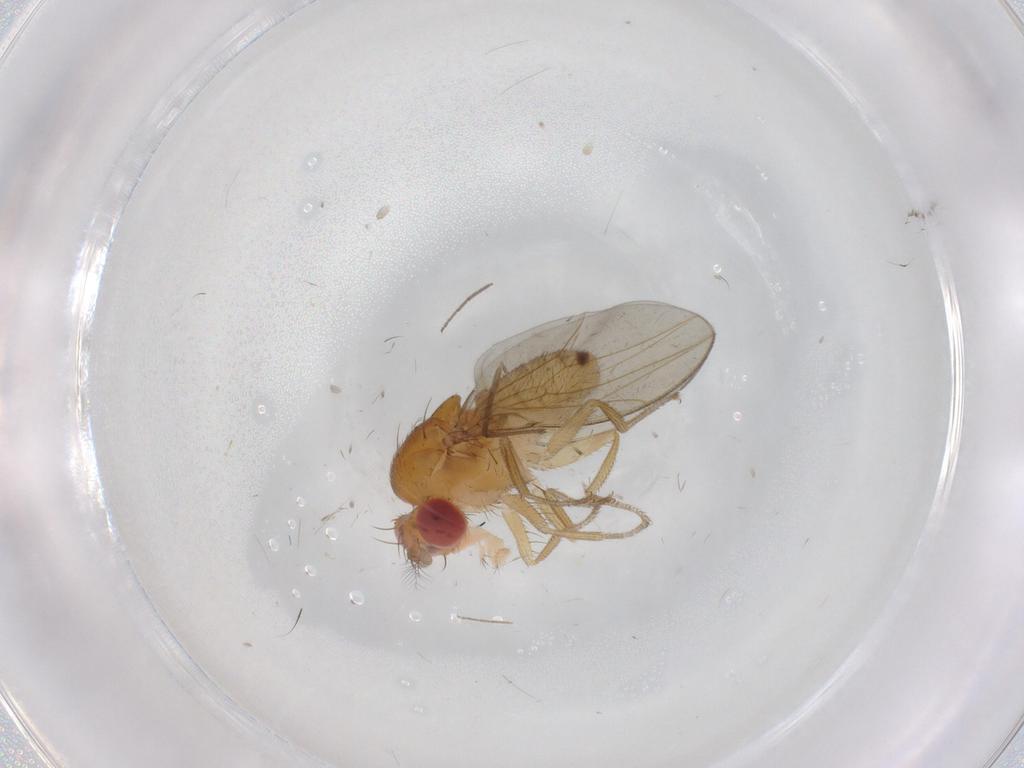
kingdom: Animalia
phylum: Arthropoda
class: Insecta
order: Diptera
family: Drosophilidae
